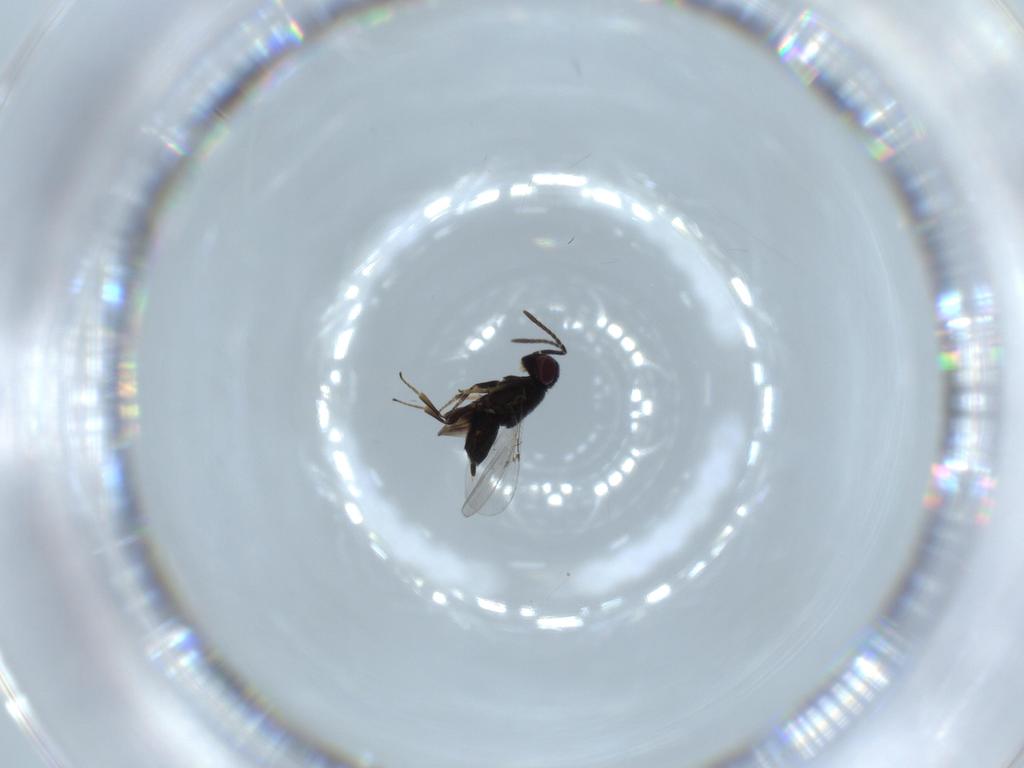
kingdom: Animalia
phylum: Arthropoda
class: Insecta
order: Hymenoptera
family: Encyrtidae
